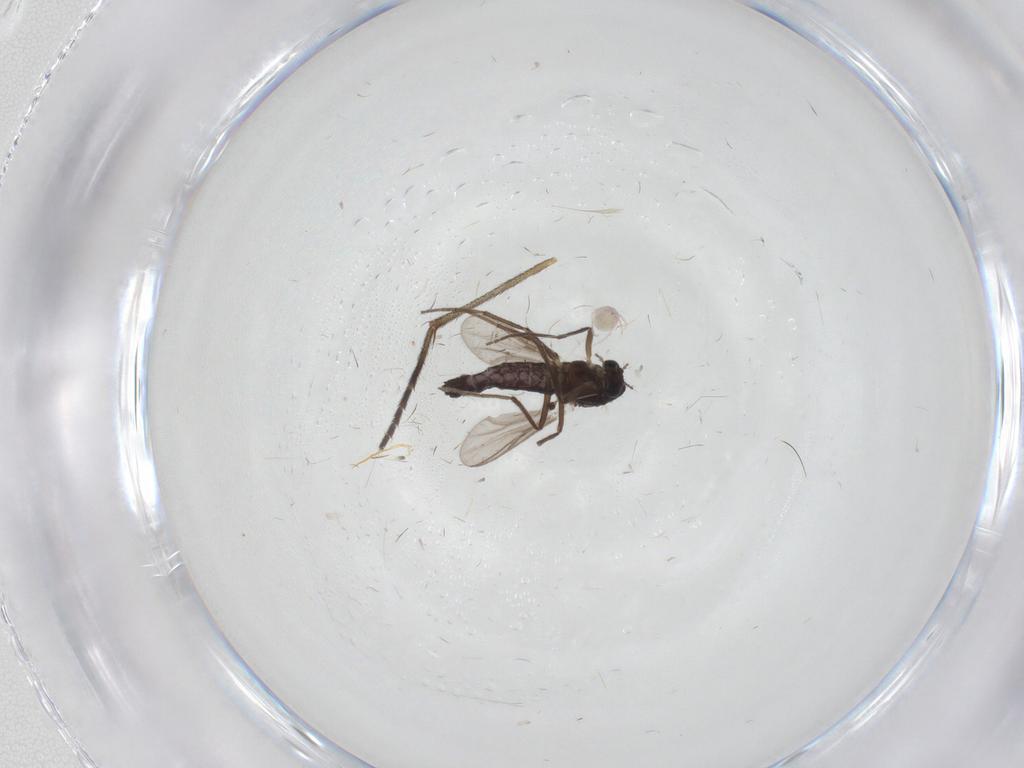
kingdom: Animalia
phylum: Arthropoda
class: Insecta
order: Diptera
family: Chironomidae
